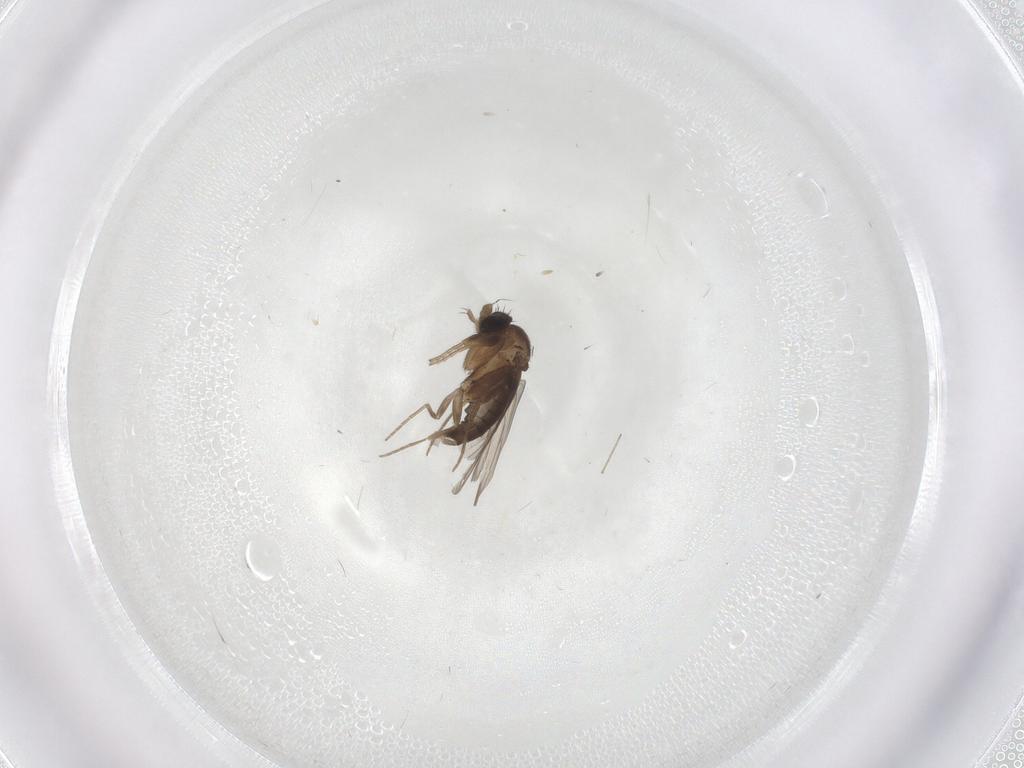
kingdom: Animalia
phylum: Arthropoda
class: Insecta
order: Diptera
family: Phoridae
